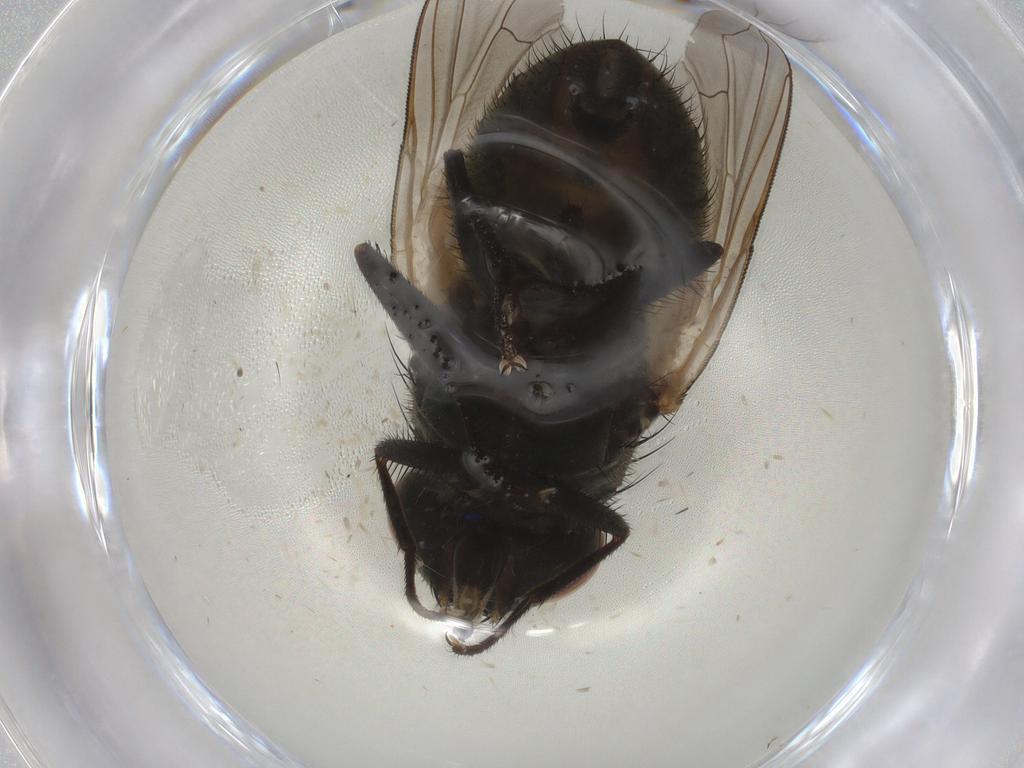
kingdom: Animalia
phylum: Arthropoda
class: Insecta
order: Diptera
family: Muscidae
